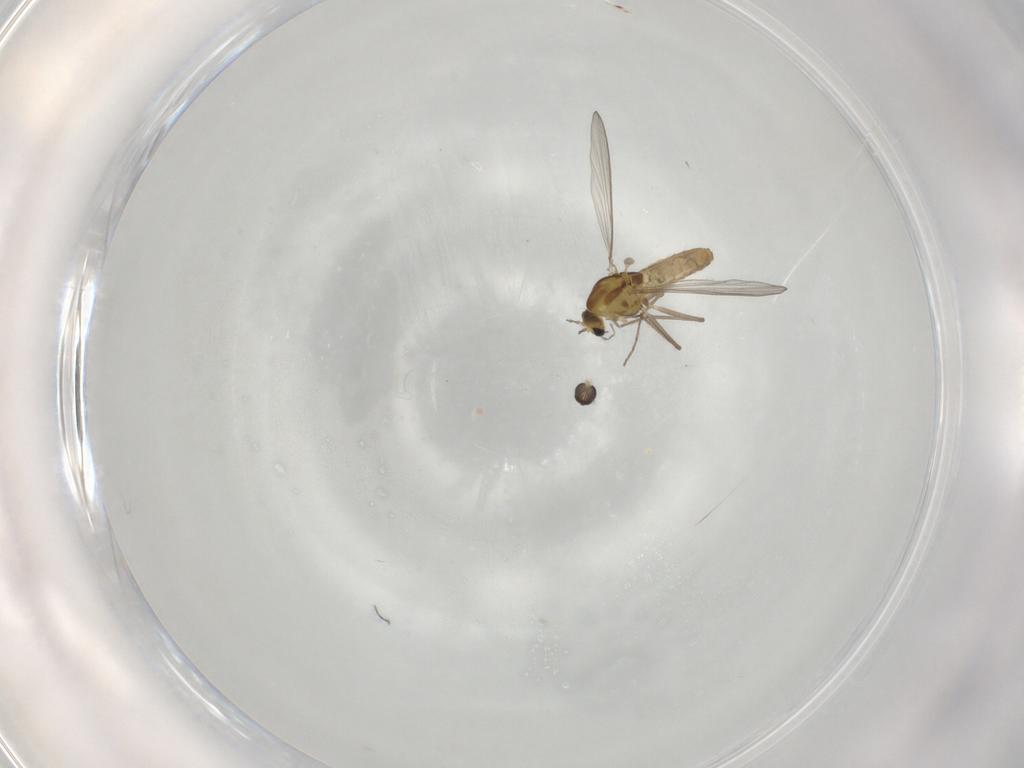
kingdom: Animalia
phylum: Arthropoda
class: Insecta
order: Diptera
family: Chironomidae
